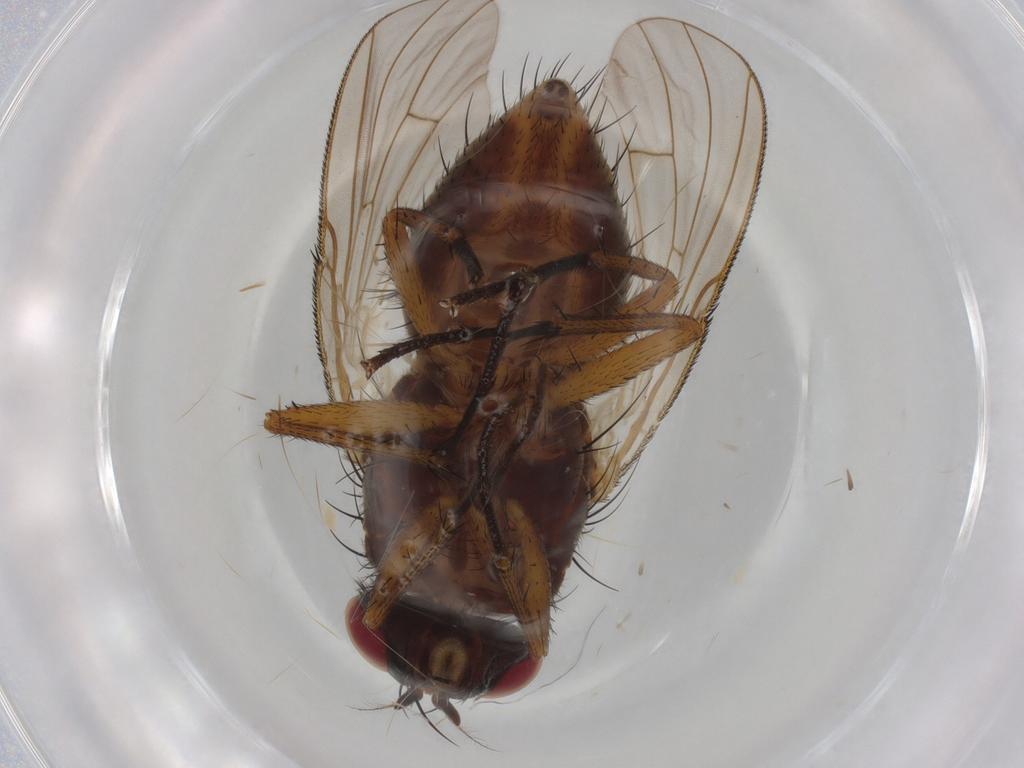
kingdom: Animalia
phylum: Arthropoda
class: Insecta
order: Diptera
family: Muscidae
